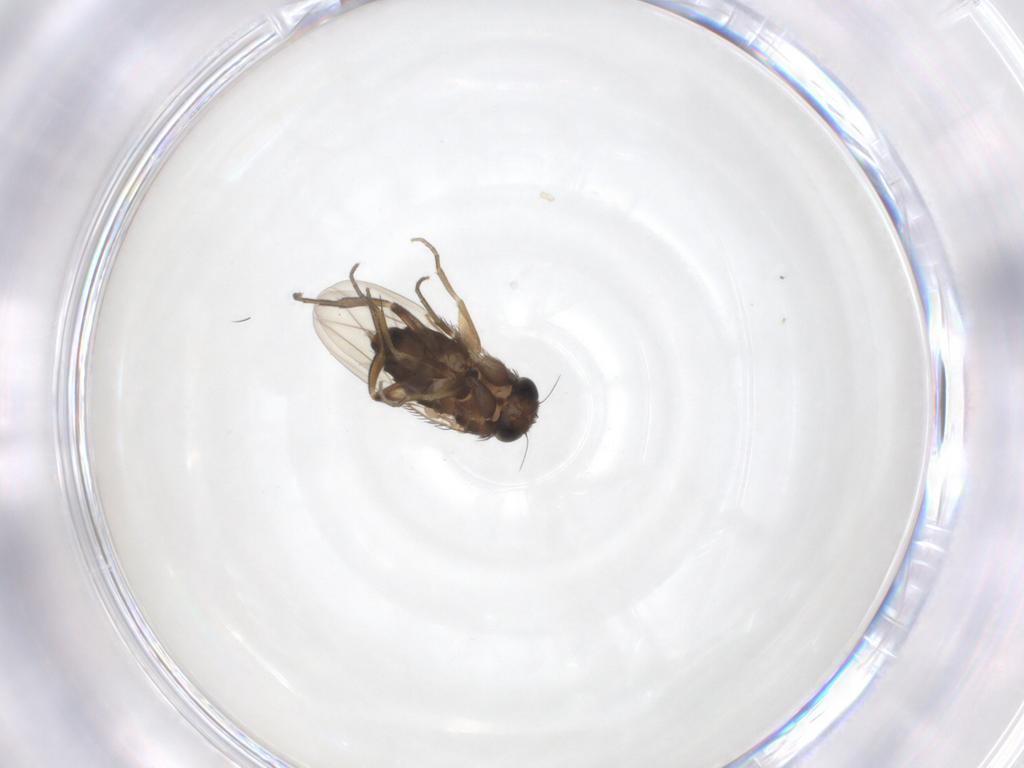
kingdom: Animalia
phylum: Arthropoda
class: Insecta
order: Diptera
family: Phoridae
